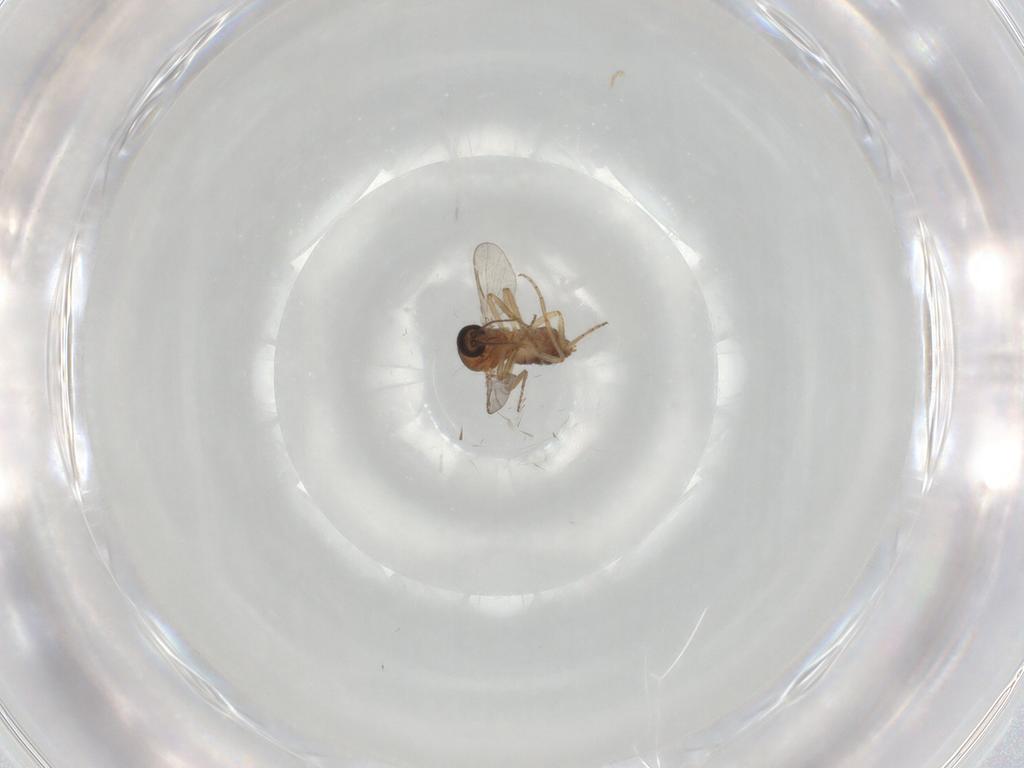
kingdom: Animalia
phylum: Arthropoda
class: Insecta
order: Diptera
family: Ceratopogonidae
